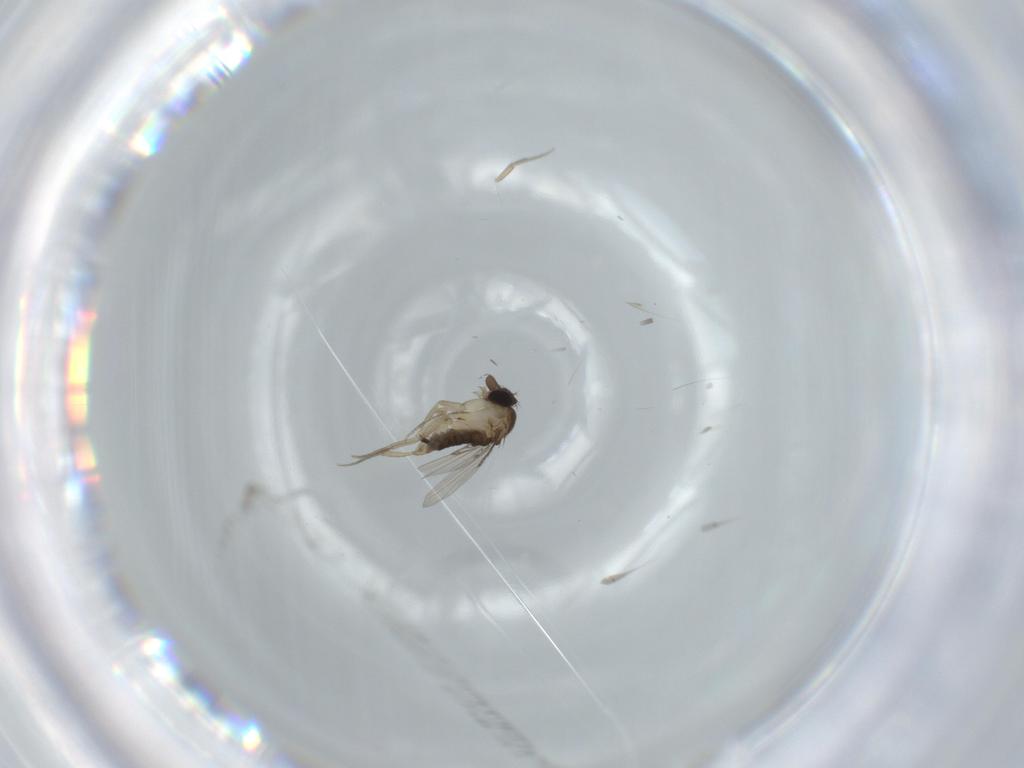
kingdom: Animalia
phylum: Arthropoda
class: Insecta
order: Diptera
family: Phoridae
